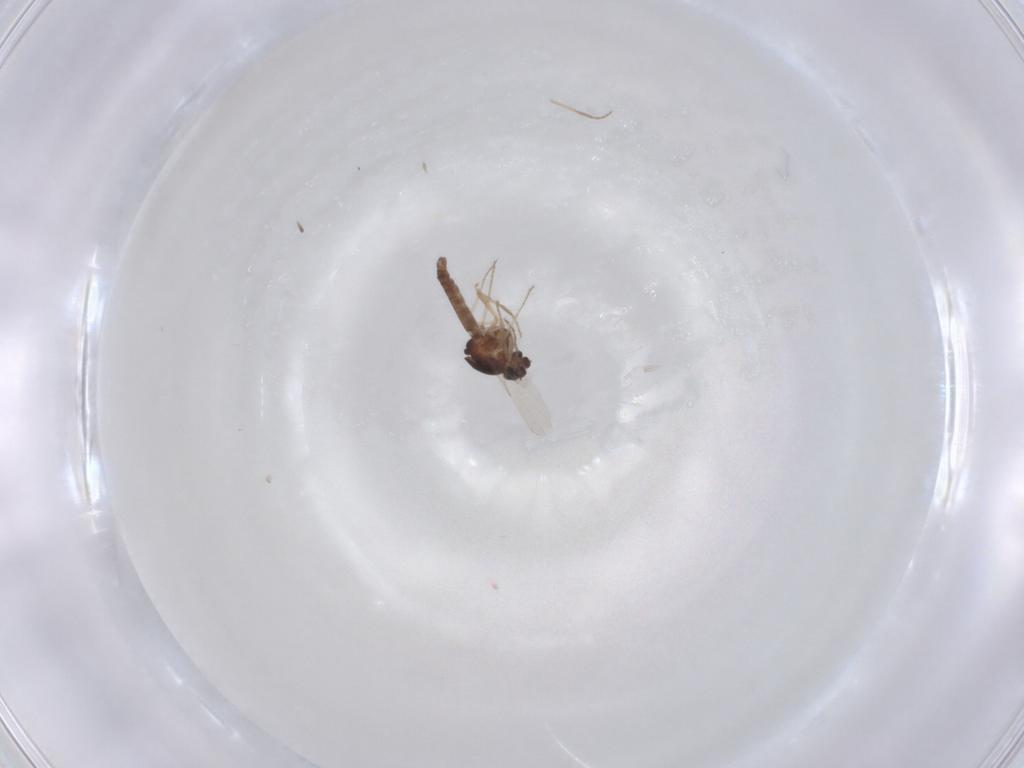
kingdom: Animalia
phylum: Arthropoda
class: Insecta
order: Diptera
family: Ceratopogonidae
